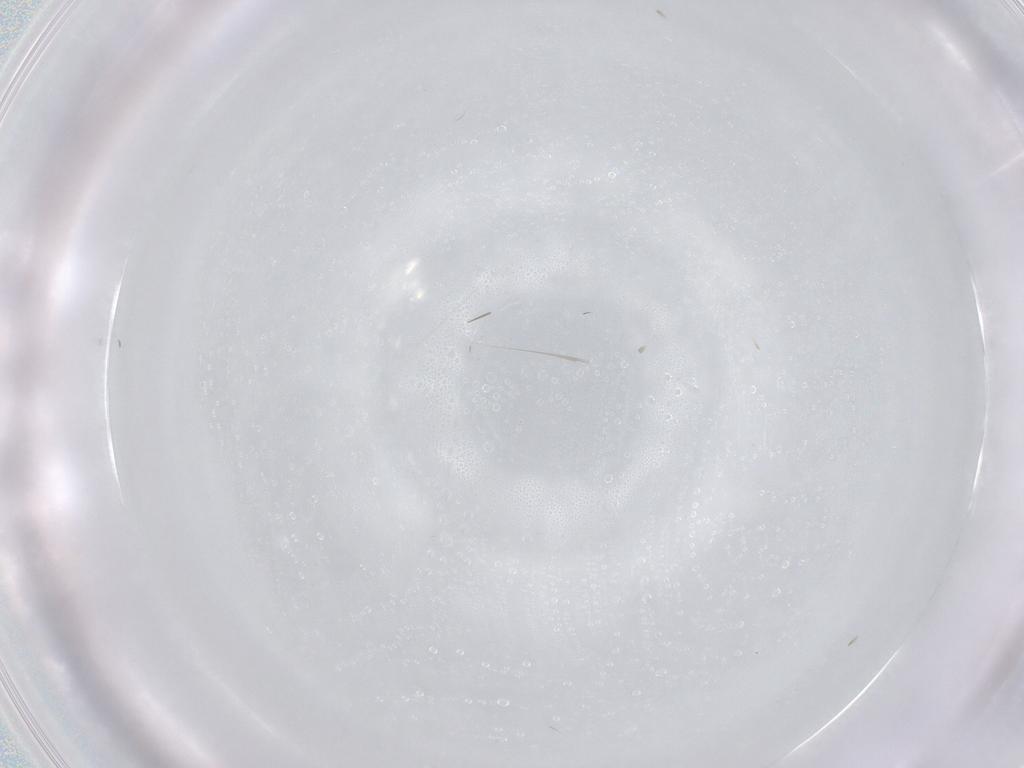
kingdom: Animalia
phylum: Arthropoda
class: Insecta
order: Diptera
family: Cecidomyiidae
